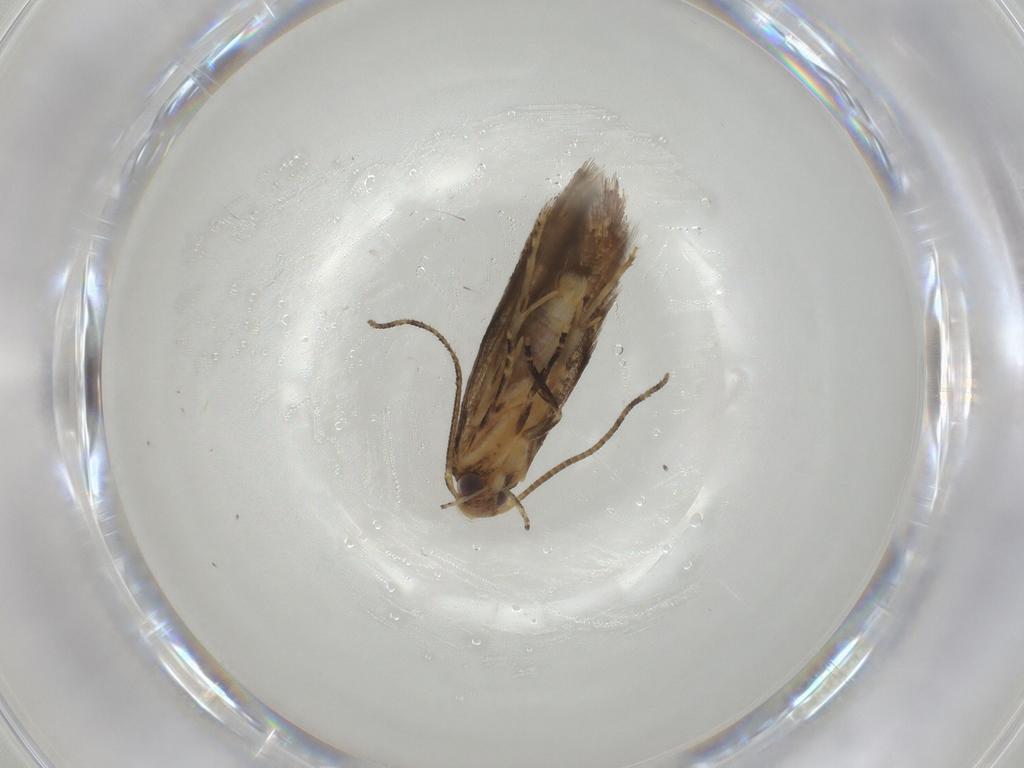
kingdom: Animalia
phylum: Arthropoda
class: Insecta
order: Lepidoptera
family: Oecophoridae
